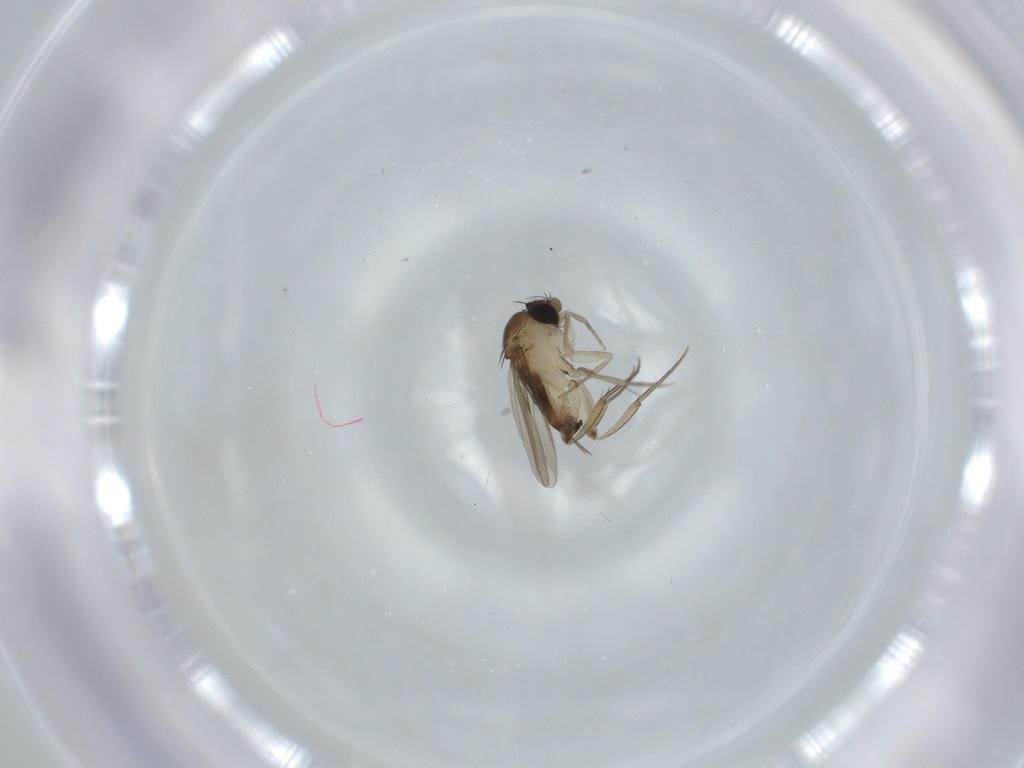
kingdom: Animalia
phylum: Arthropoda
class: Insecta
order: Diptera
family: Phoridae
